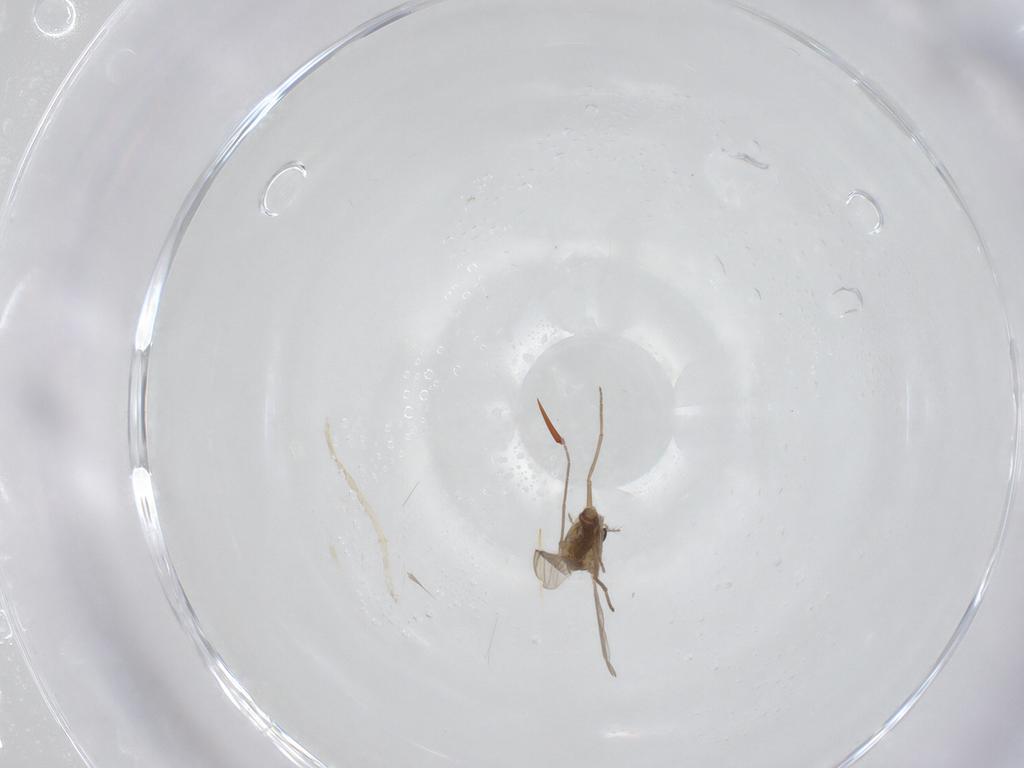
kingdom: Animalia
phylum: Arthropoda
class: Insecta
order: Diptera
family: Chironomidae
